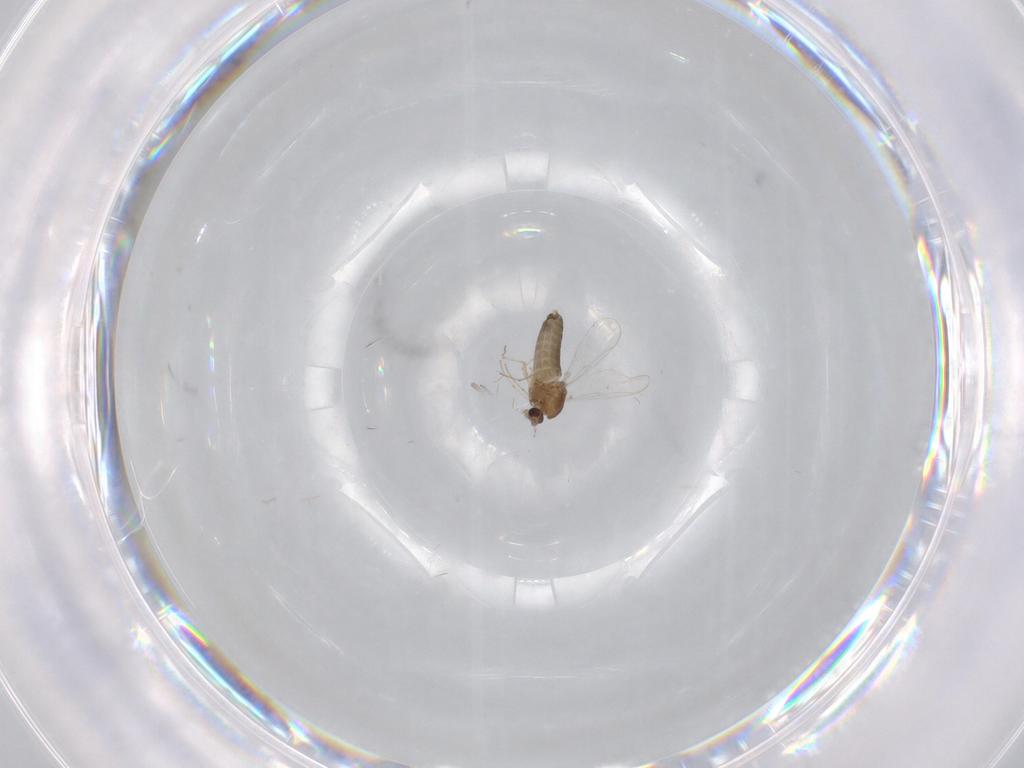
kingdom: Animalia
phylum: Arthropoda
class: Insecta
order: Diptera
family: Chironomidae
